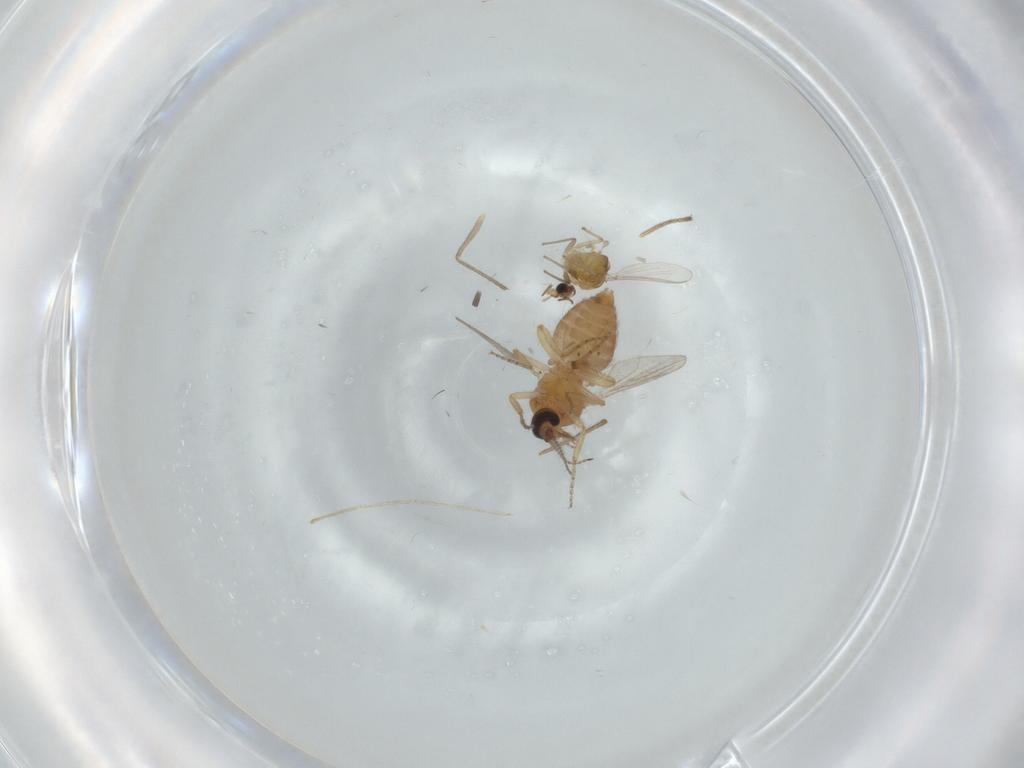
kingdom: Animalia
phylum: Arthropoda
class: Insecta
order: Diptera
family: Ceratopogonidae
